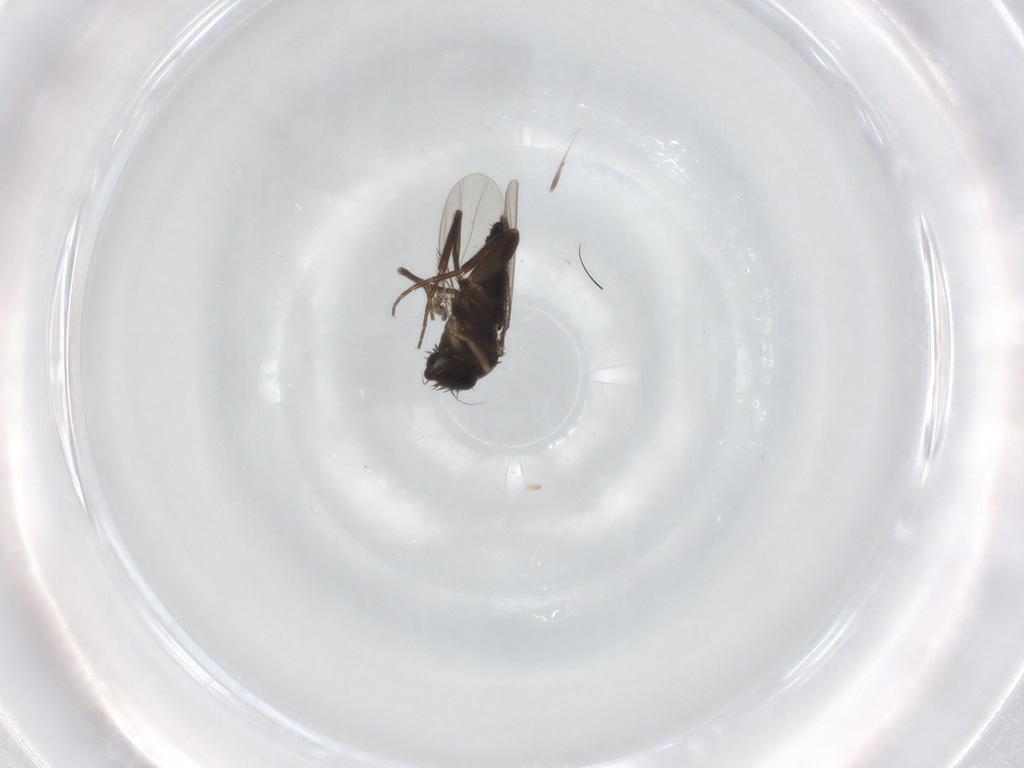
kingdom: Animalia
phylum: Arthropoda
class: Insecta
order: Diptera
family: Phoridae
